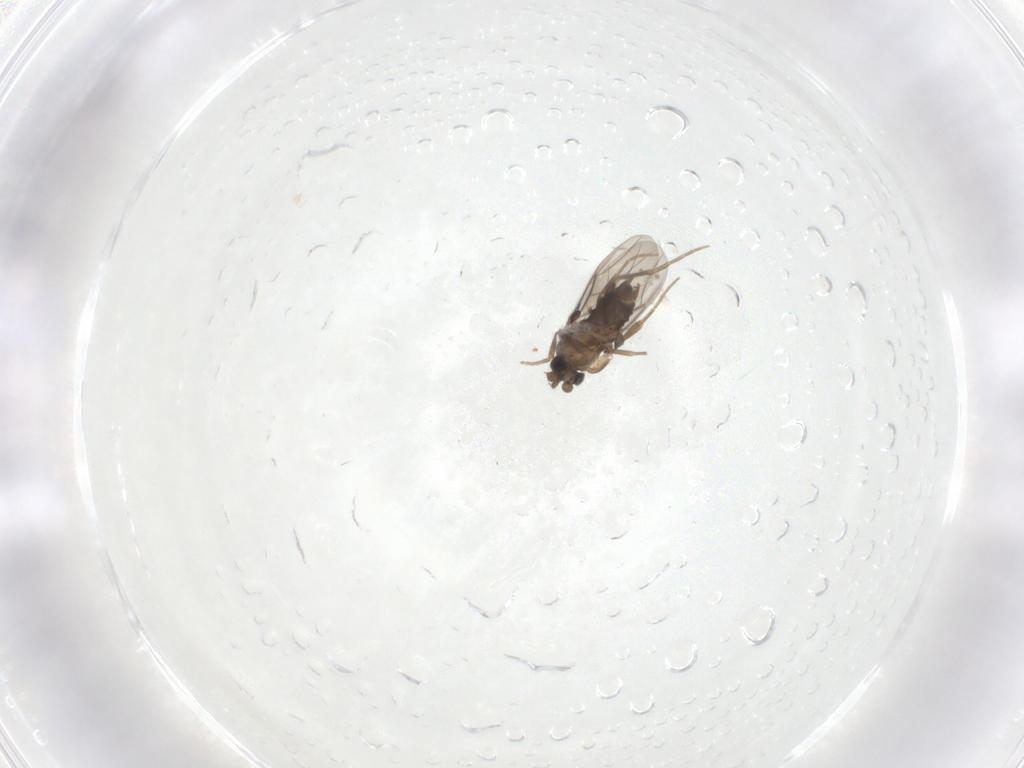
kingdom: Animalia
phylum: Arthropoda
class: Insecta
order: Diptera
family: Phoridae
